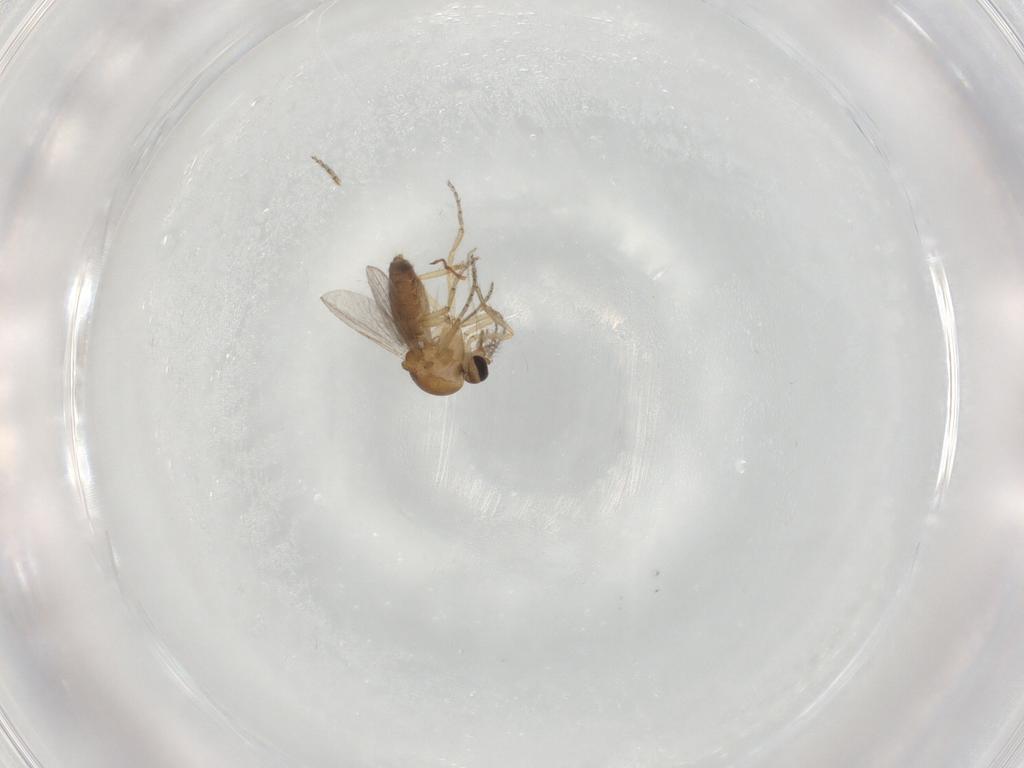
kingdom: Animalia
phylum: Arthropoda
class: Insecta
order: Diptera
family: Ceratopogonidae
